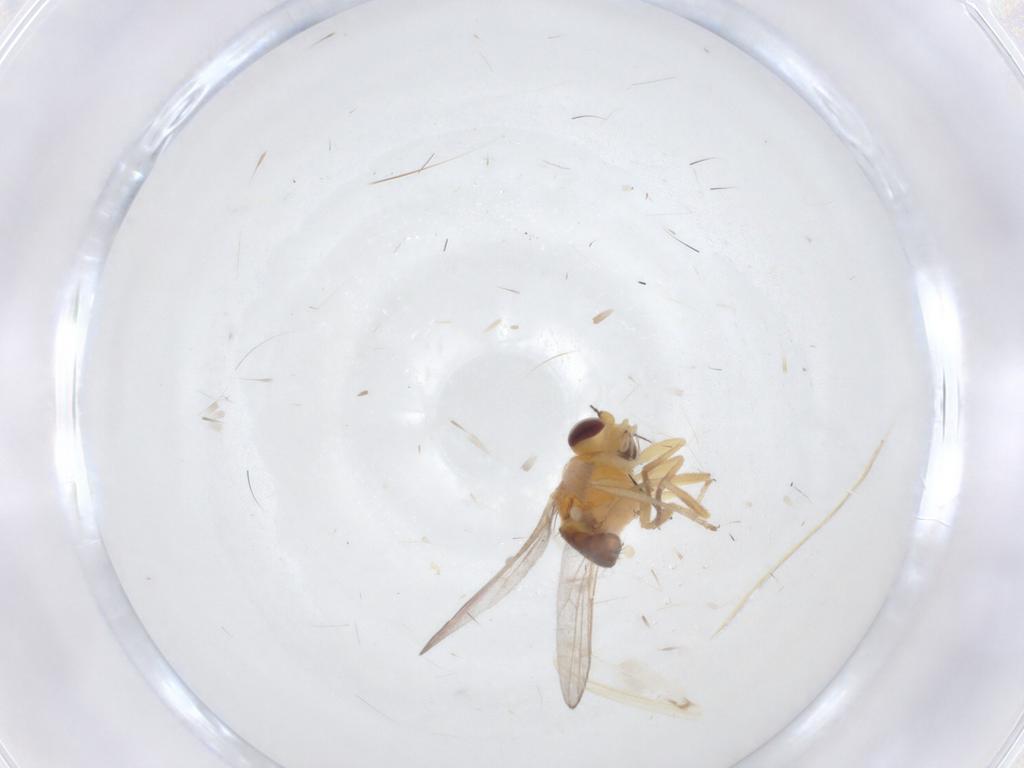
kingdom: Animalia
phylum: Arthropoda
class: Insecta
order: Diptera
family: Chloropidae
